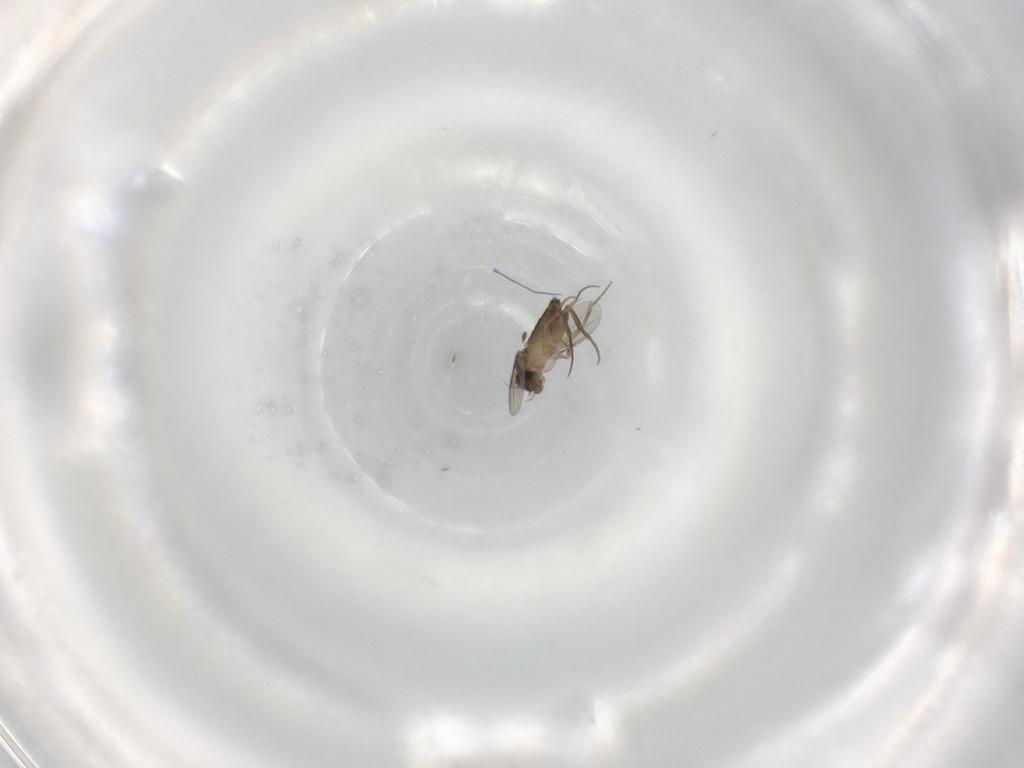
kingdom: Animalia
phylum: Arthropoda
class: Insecta
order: Diptera
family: Phoridae
